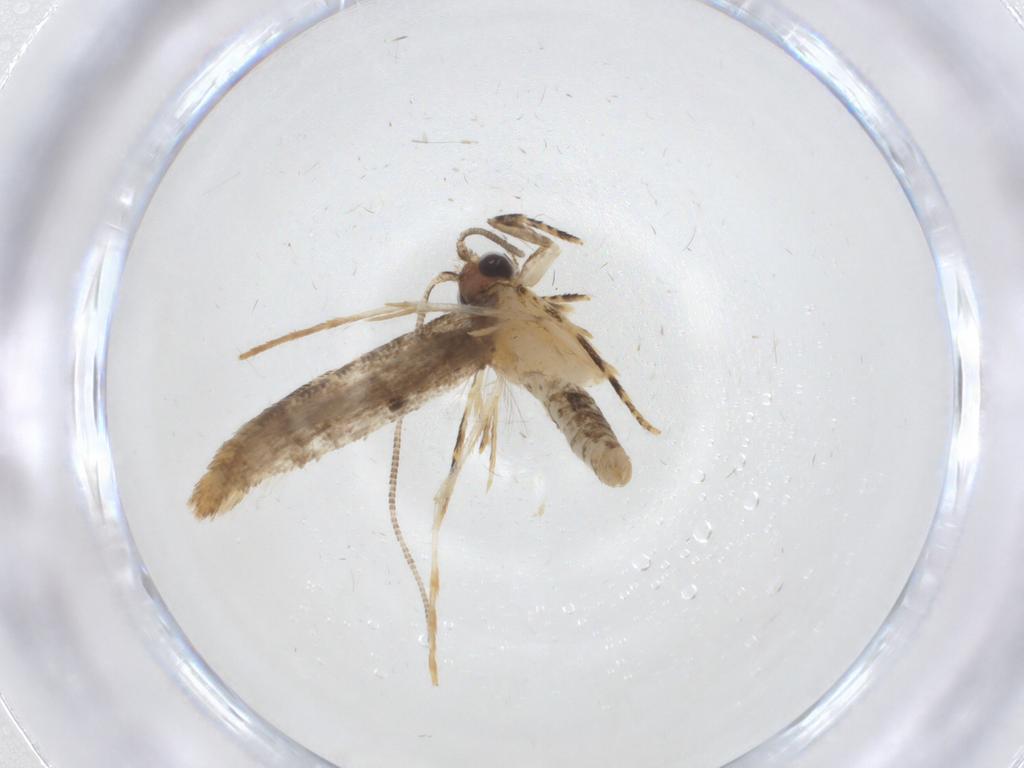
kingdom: Animalia
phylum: Arthropoda
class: Insecta
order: Lepidoptera
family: Tineidae
